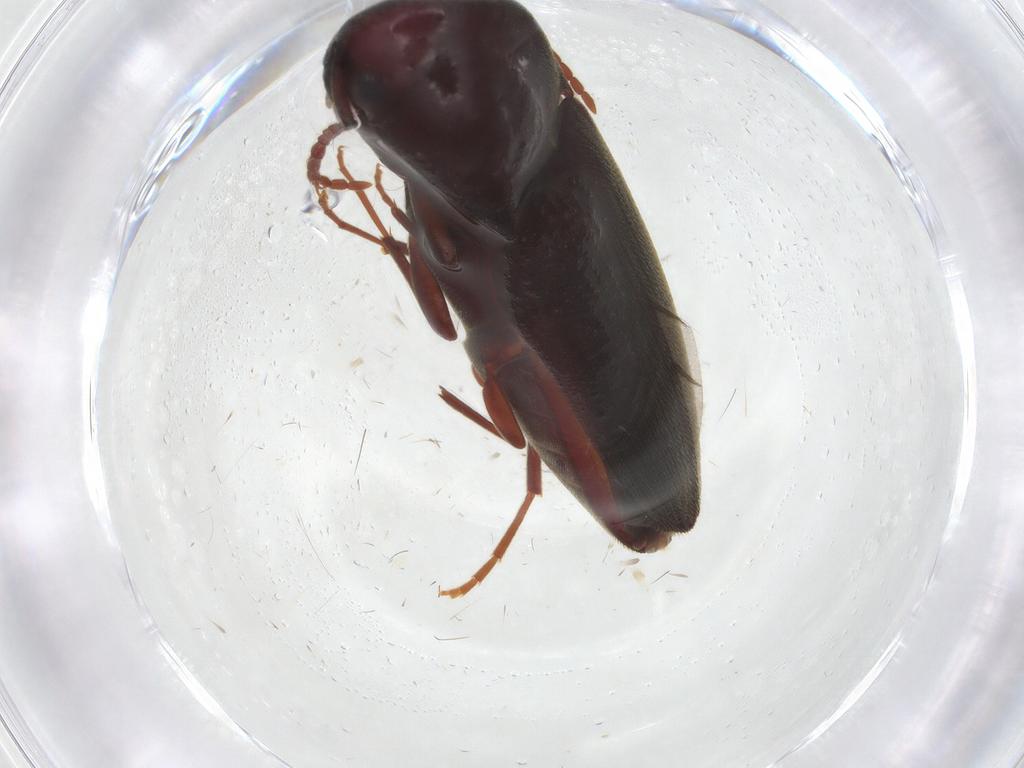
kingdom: Animalia
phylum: Arthropoda
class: Insecta
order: Coleoptera
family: Eucnemidae
